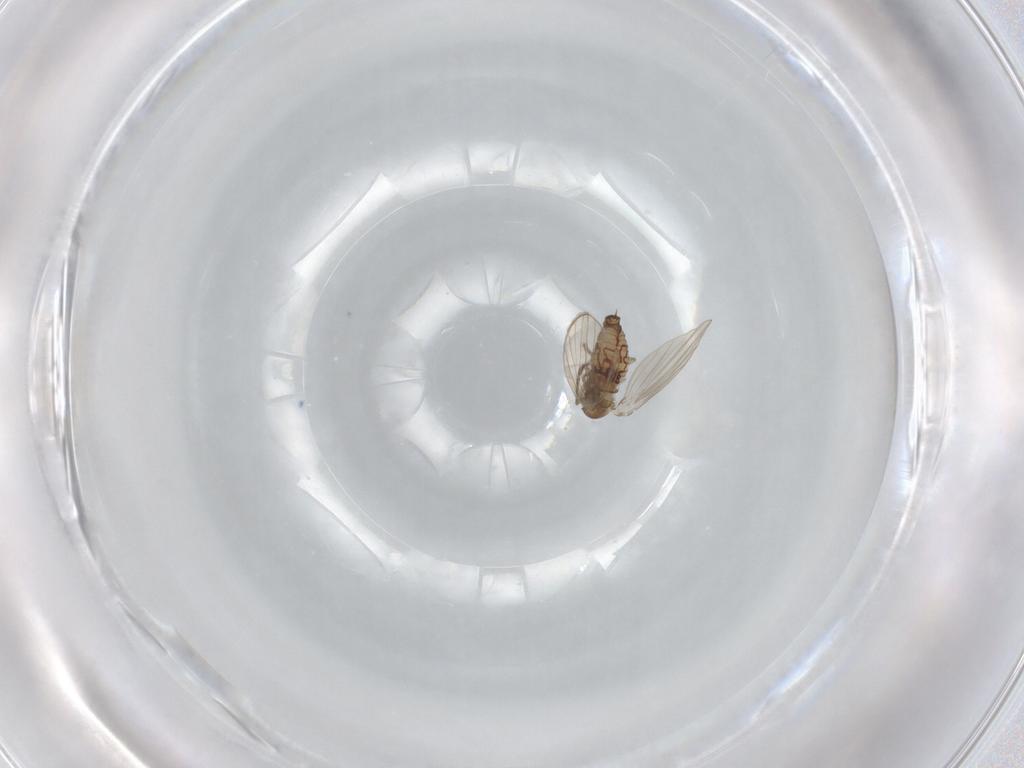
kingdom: Animalia
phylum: Arthropoda
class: Insecta
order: Diptera
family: Psychodidae
